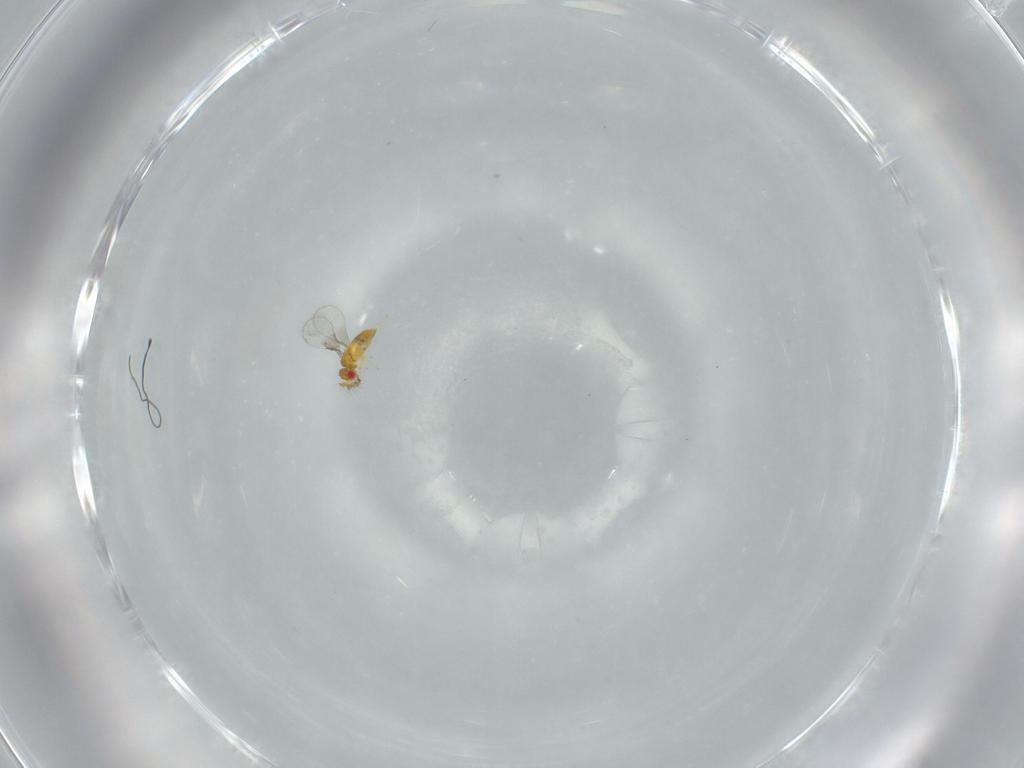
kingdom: Animalia
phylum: Arthropoda
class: Insecta
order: Hymenoptera
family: Trichogrammatidae
